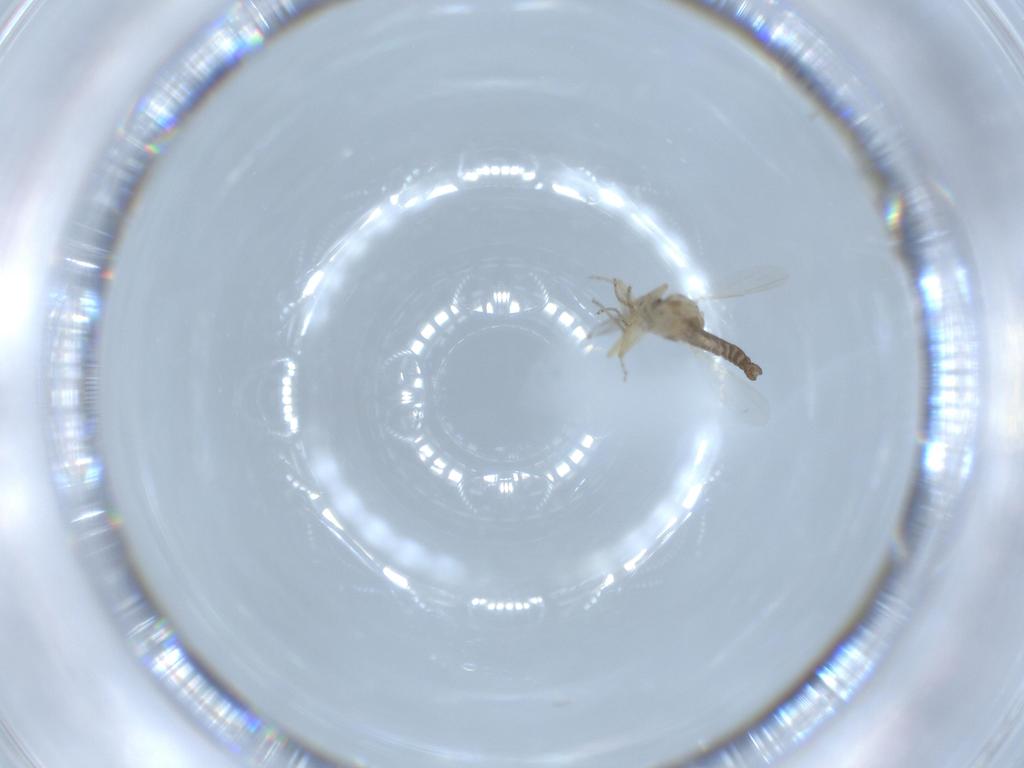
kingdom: Animalia
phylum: Arthropoda
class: Insecta
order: Diptera
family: Ceratopogonidae
